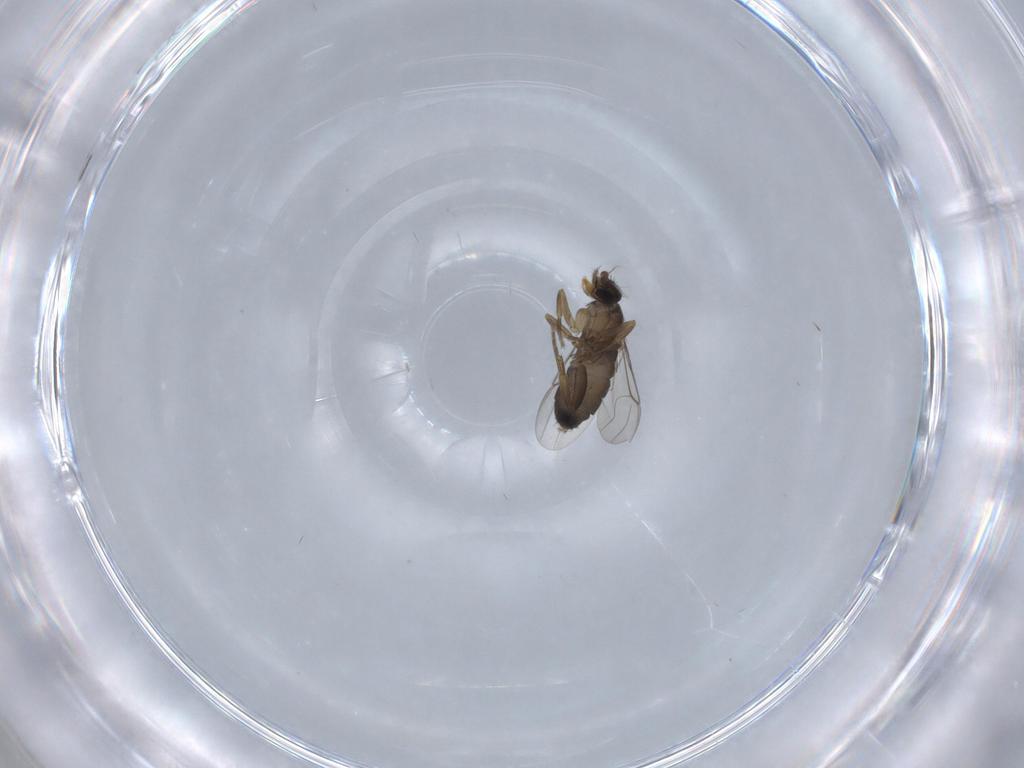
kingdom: Animalia
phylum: Arthropoda
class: Insecta
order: Diptera
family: Phoridae
